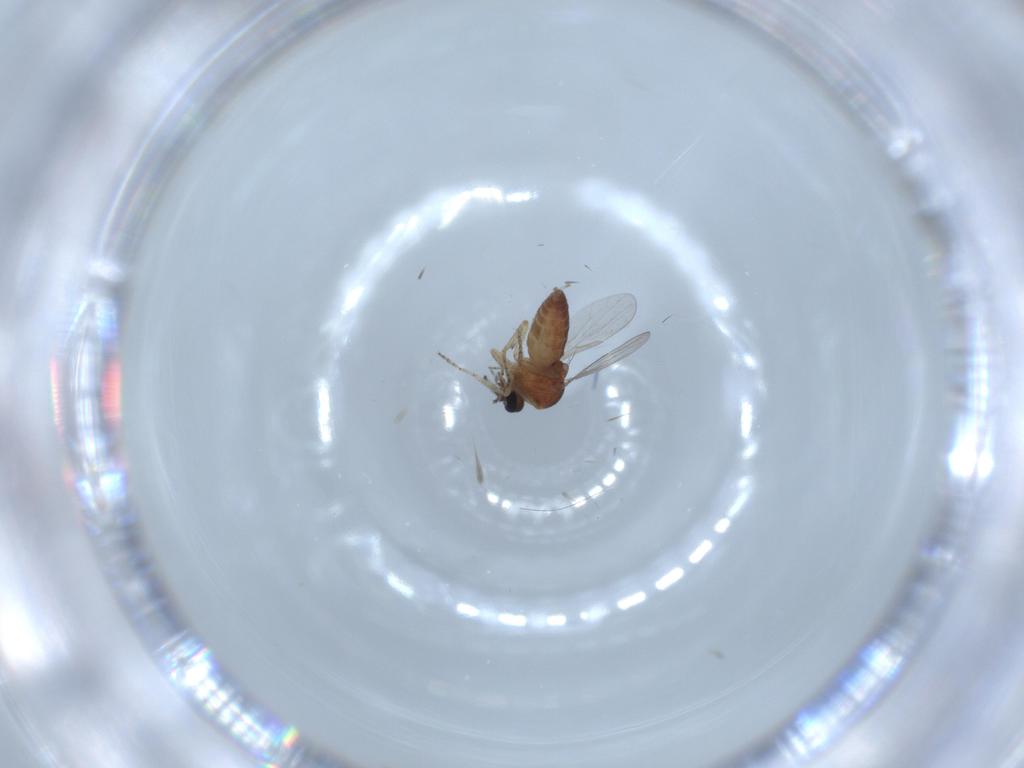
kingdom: Animalia
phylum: Arthropoda
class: Insecta
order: Diptera
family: Ceratopogonidae
